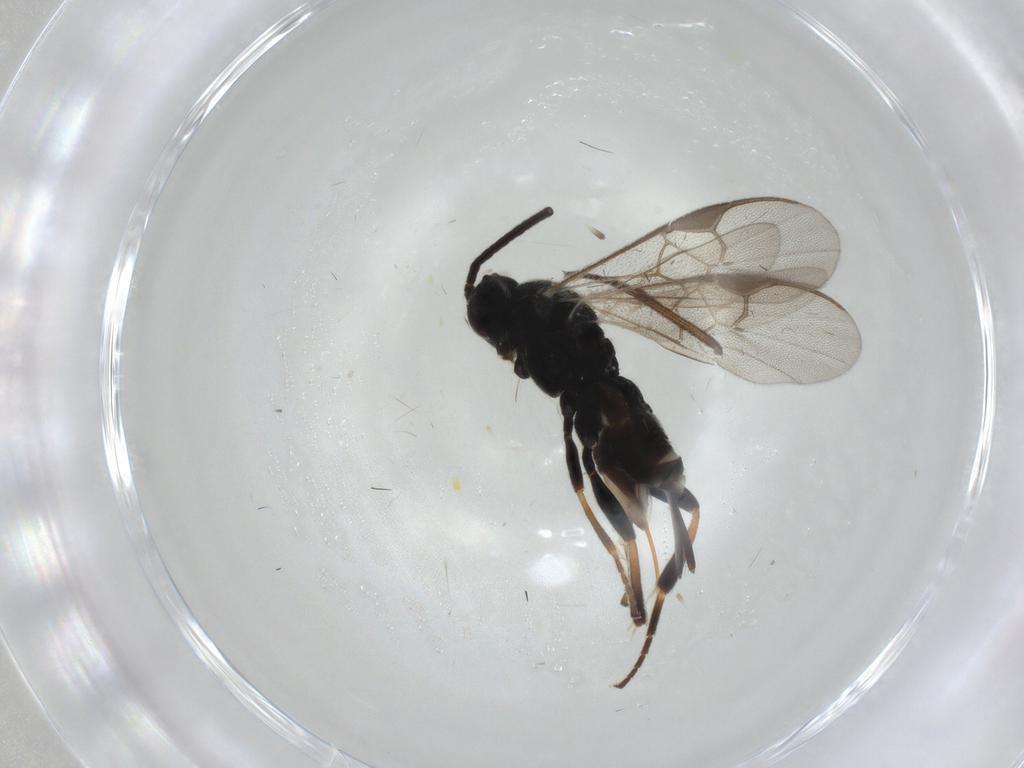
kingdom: Animalia
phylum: Arthropoda
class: Insecta
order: Hymenoptera
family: Braconidae
